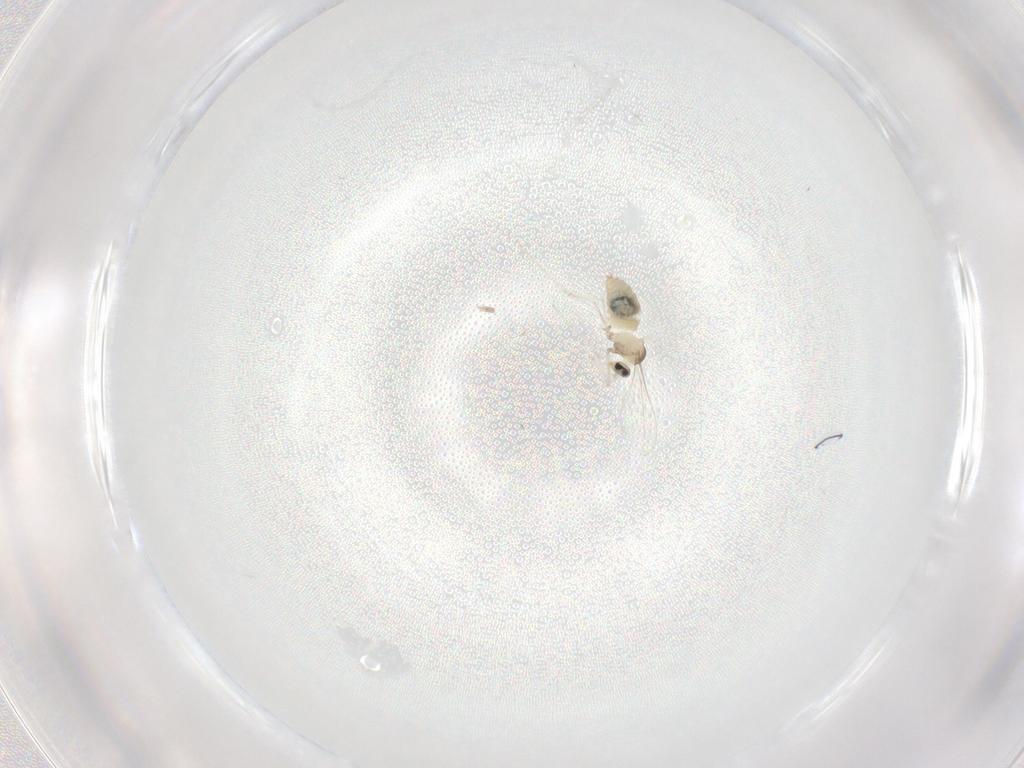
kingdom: Animalia
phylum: Arthropoda
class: Insecta
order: Diptera
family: Cecidomyiidae
